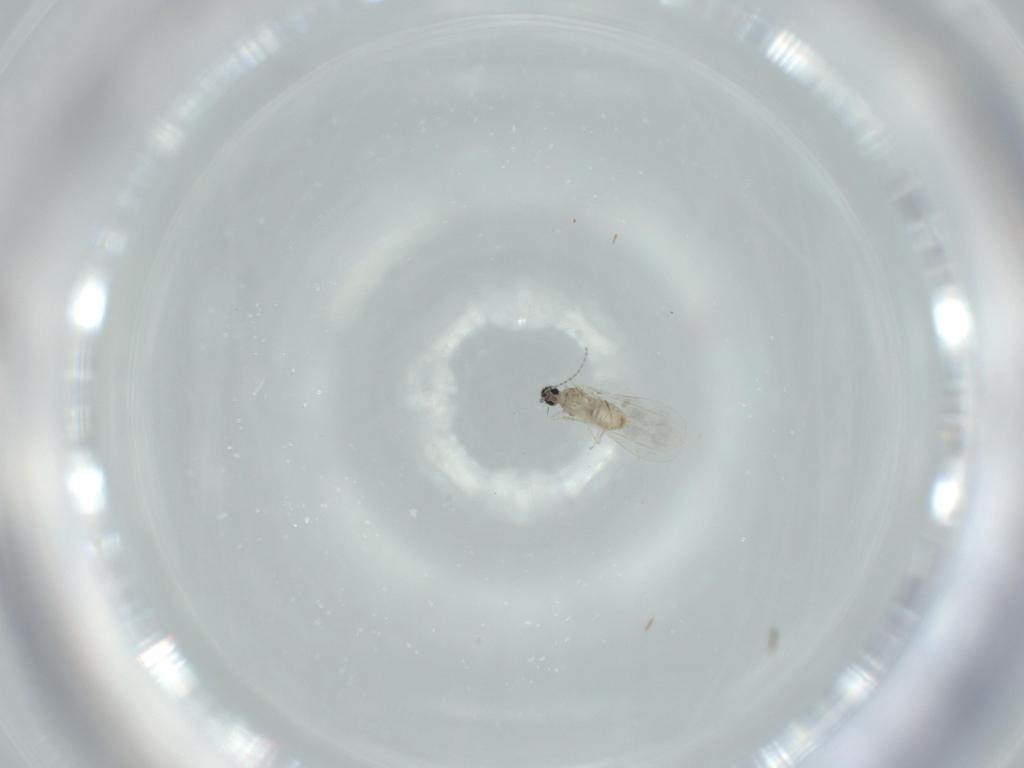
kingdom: Animalia
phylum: Arthropoda
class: Insecta
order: Diptera
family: Cecidomyiidae
